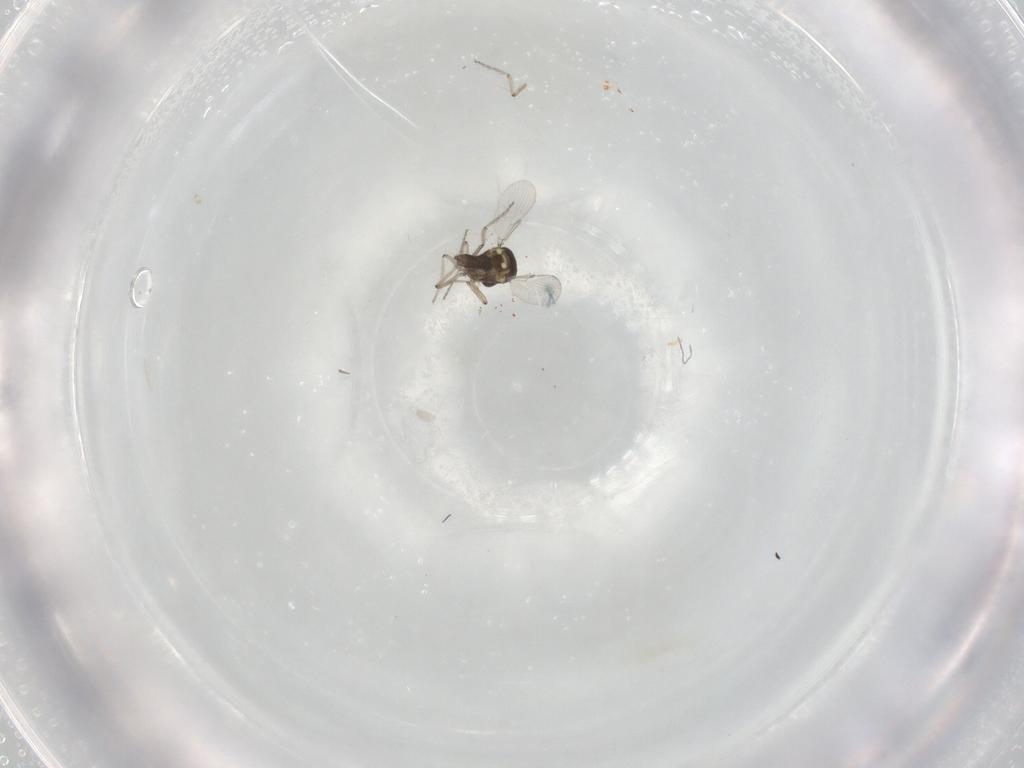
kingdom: Animalia
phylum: Arthropoda
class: Insecta
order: Diptera
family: Ceratopogonidae
